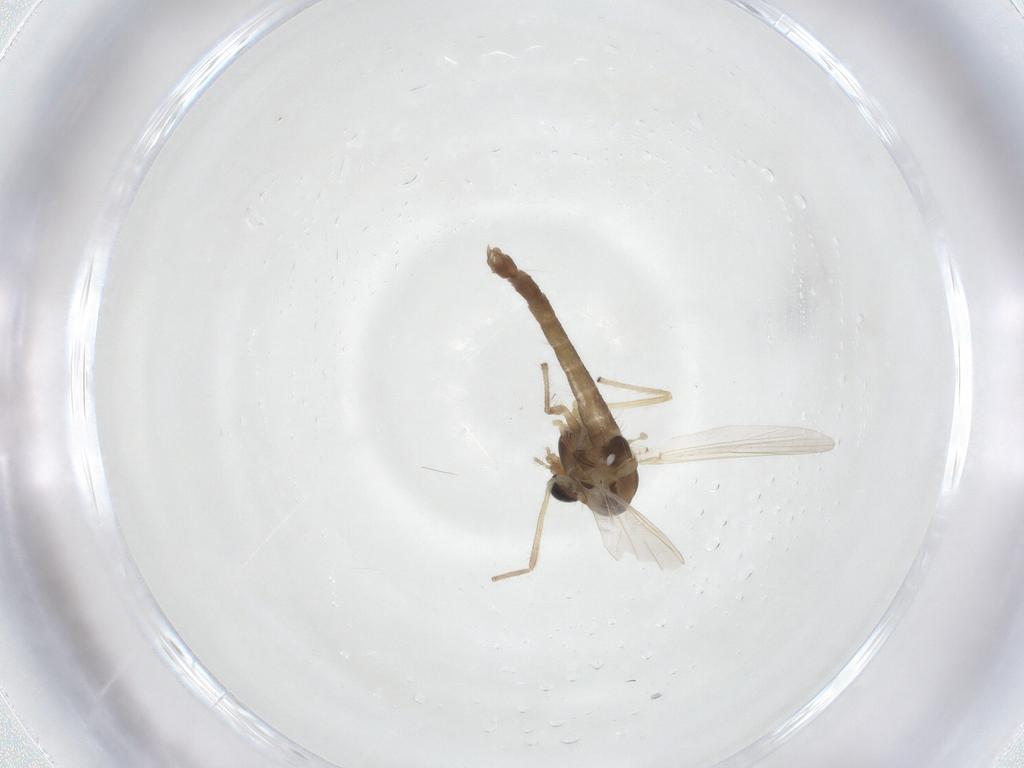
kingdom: Animalia
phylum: Arthropoda
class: Insecta
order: Diptera
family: Chironomidae
